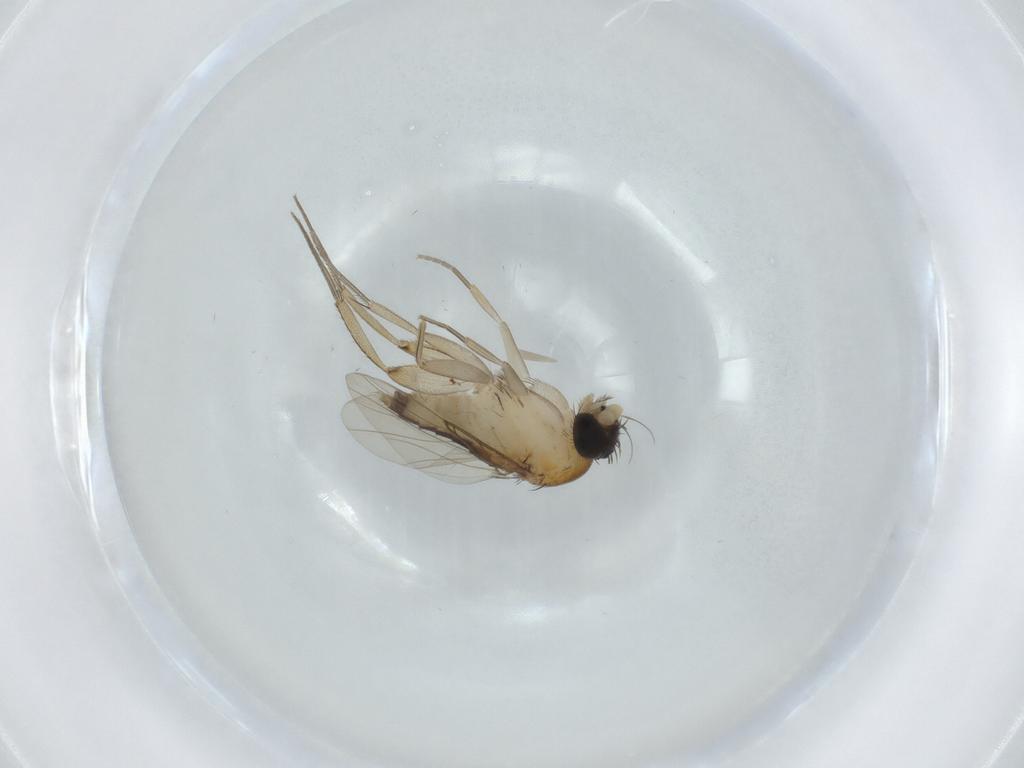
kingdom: Animalia
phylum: Arthropoda
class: Insecta
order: Diptera
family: Phoridae
